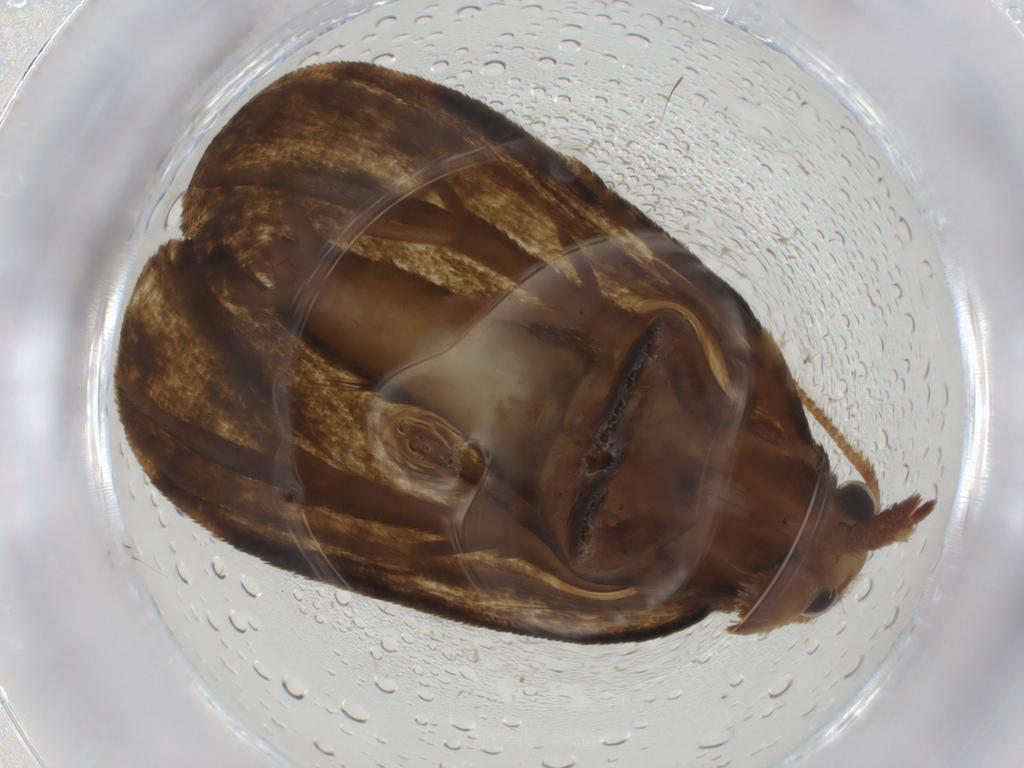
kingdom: Animalia
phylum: Arthropoda
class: Insecta
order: Lepidoptera
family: Geometridae
